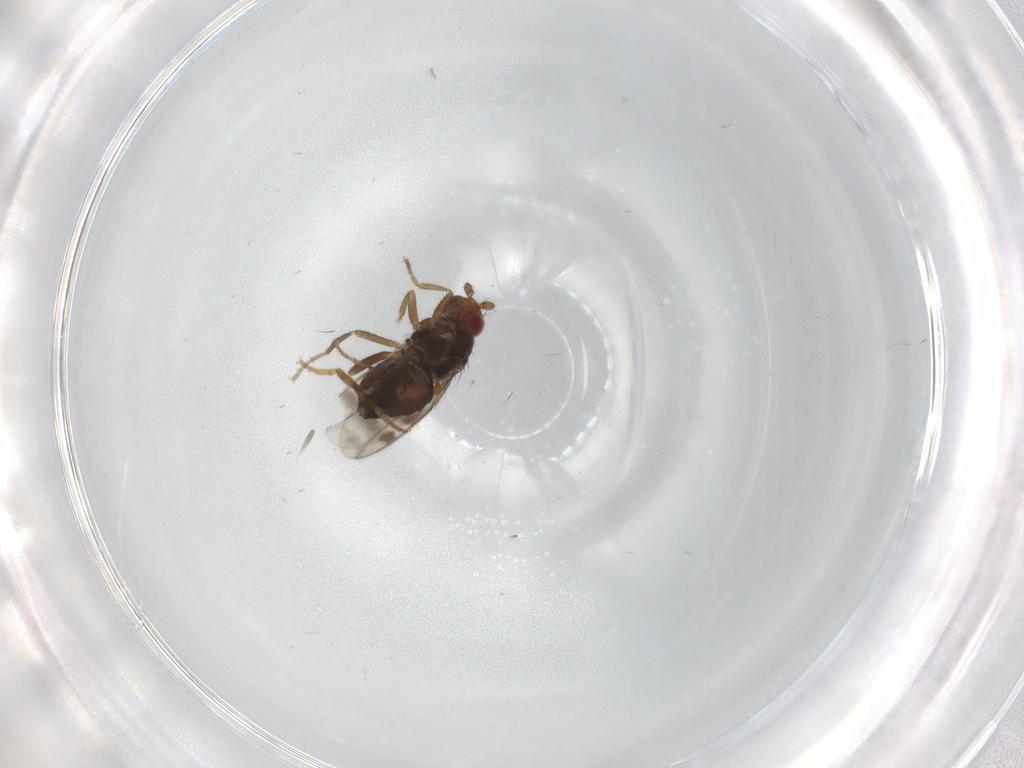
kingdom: Animalia
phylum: Arthropoda
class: Insecta
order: Diptera
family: Sphaeroceridae
